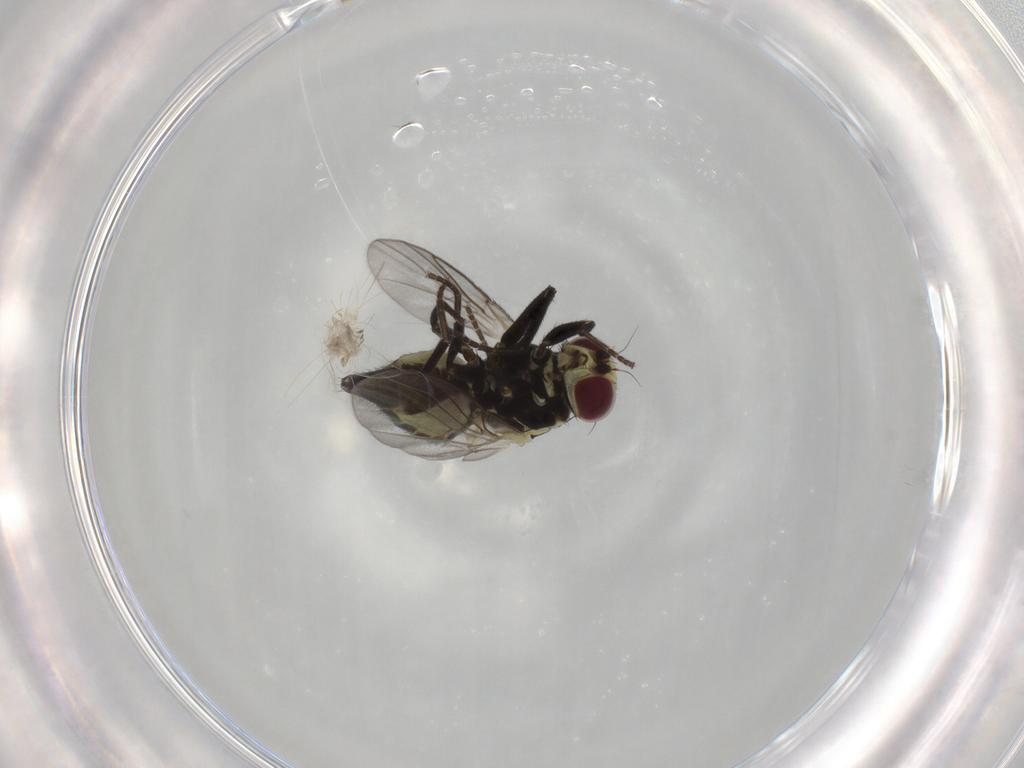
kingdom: Animalia
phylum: Arthropoda
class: Insecta
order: Diptera
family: Agromyzidae
